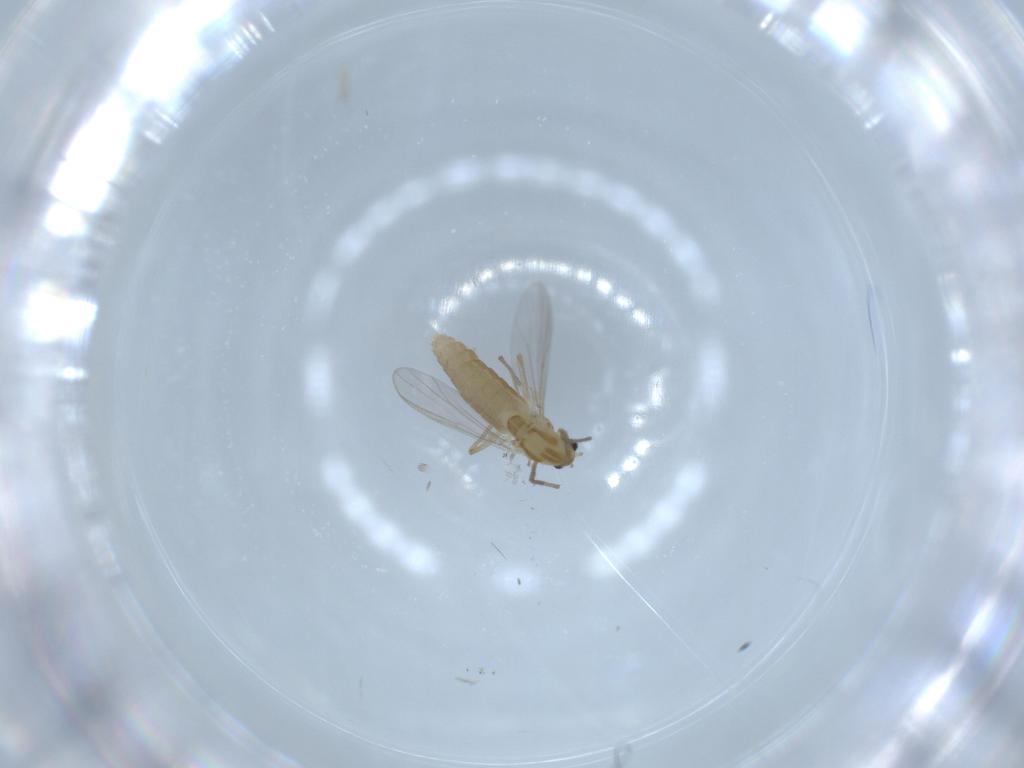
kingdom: Animalia
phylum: Arthropoda
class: Insecta
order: Diptera
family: Chironomidae
